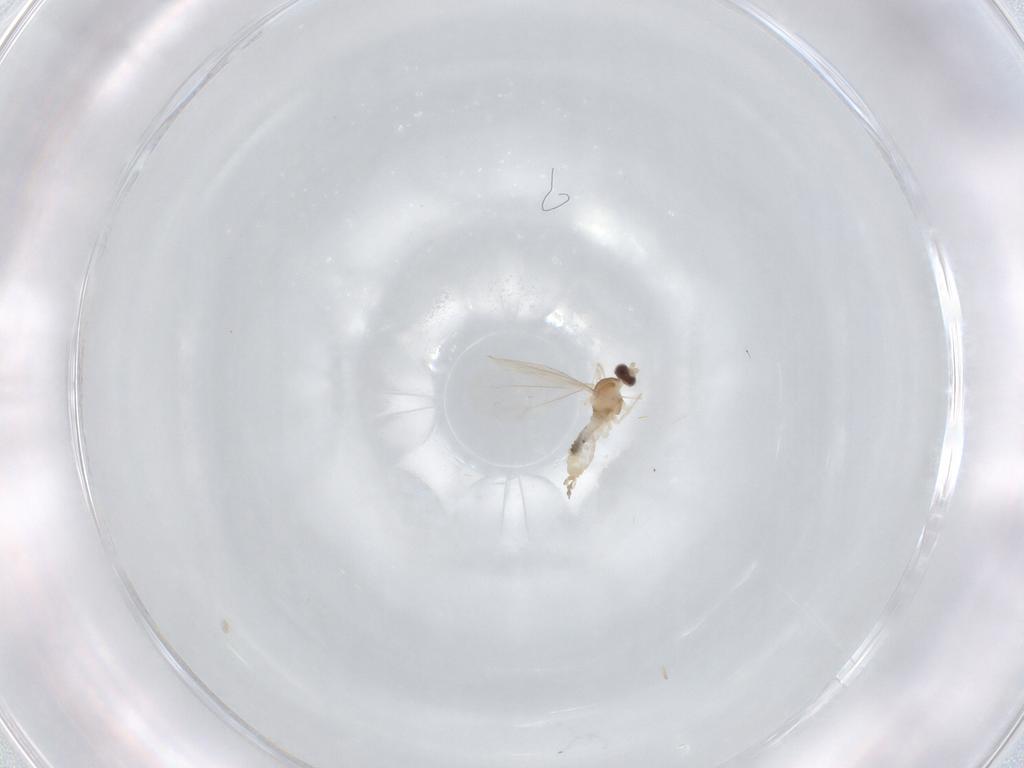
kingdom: Animalia
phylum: Arthropoda
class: Insecta
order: Diptera
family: Cecidomyiidae
